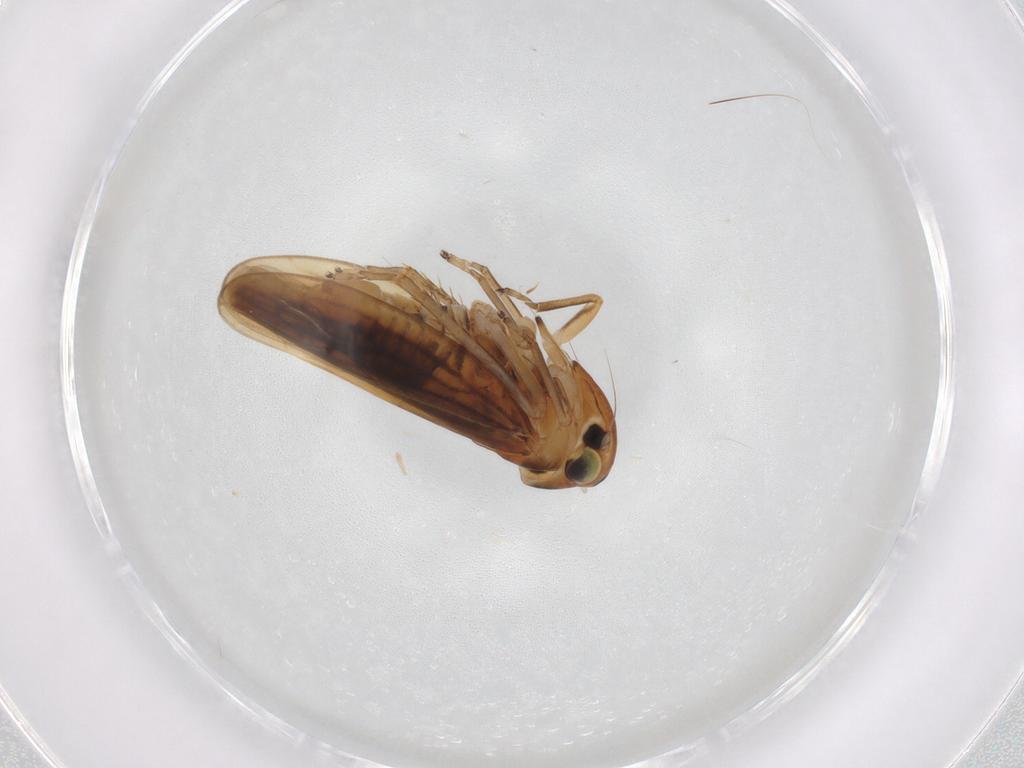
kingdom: Animalia
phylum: Arthropoda
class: Insecta
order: Hemiptera
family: Cicadellidae
